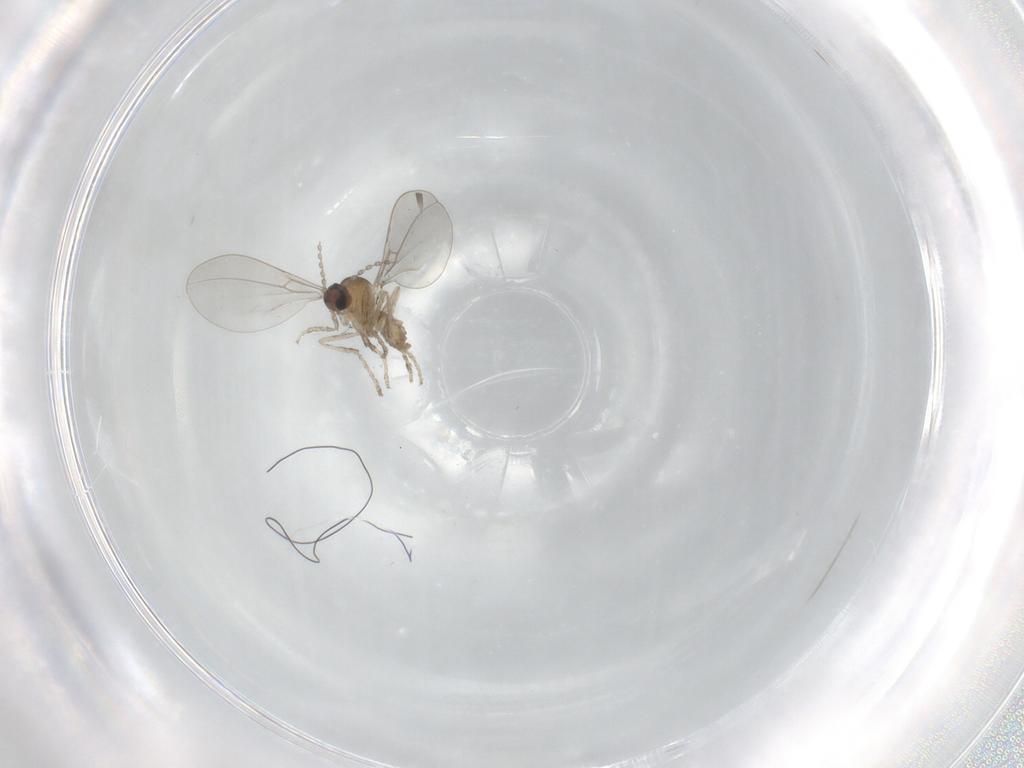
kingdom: Animalia
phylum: Arthropoda
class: Insecta
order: Diptera
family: Cecidomyiidae
